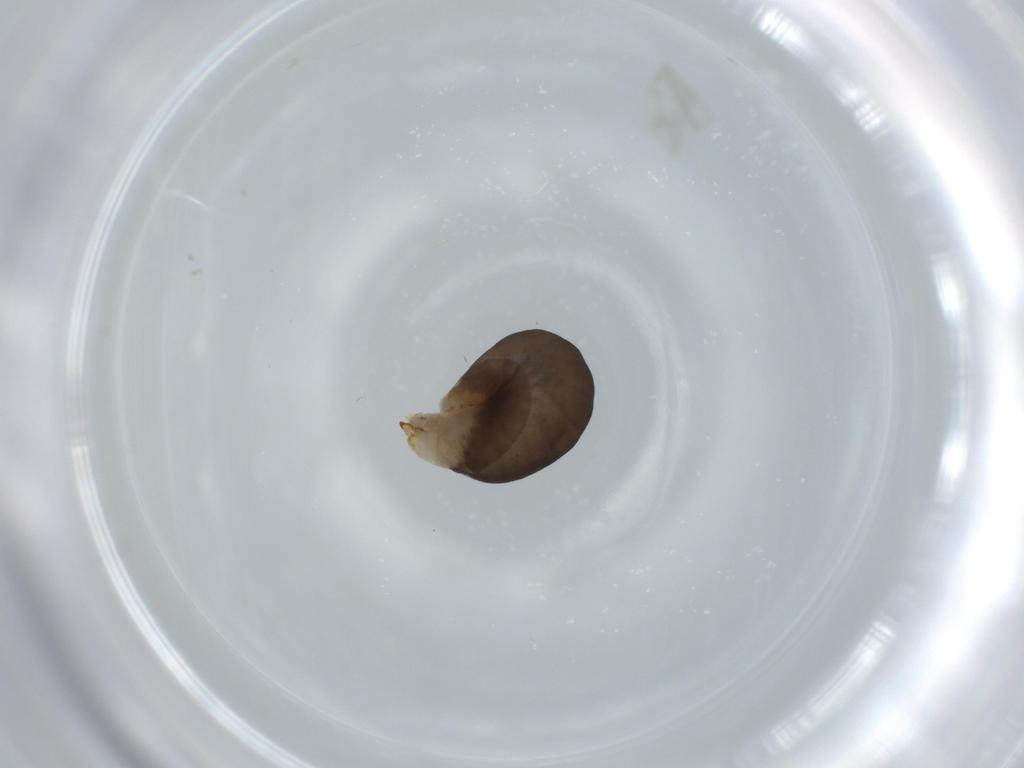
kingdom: Animalia
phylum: Arthropoda
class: Insecta
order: Hymenoptera
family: Dryinidae
